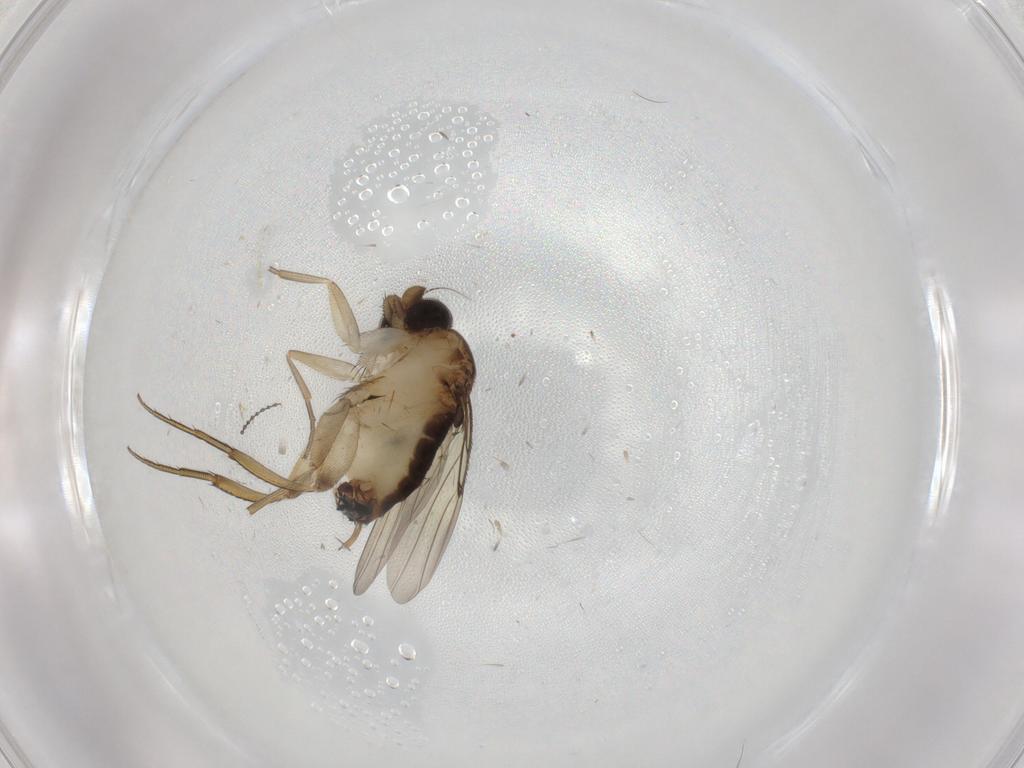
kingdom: Animalia
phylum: Arthropoda
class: Insecta
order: Diptera
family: Phoridae
